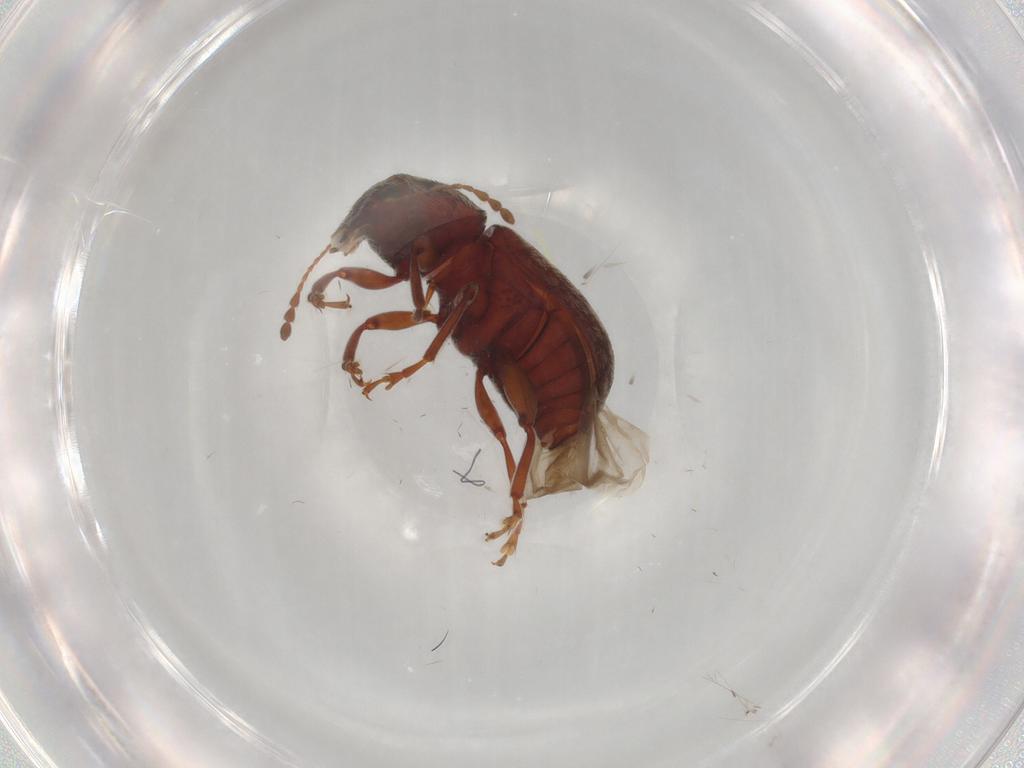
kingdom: Animalia
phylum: Arthropoda
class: Insecta
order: Coleoptera
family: Anthribidae
